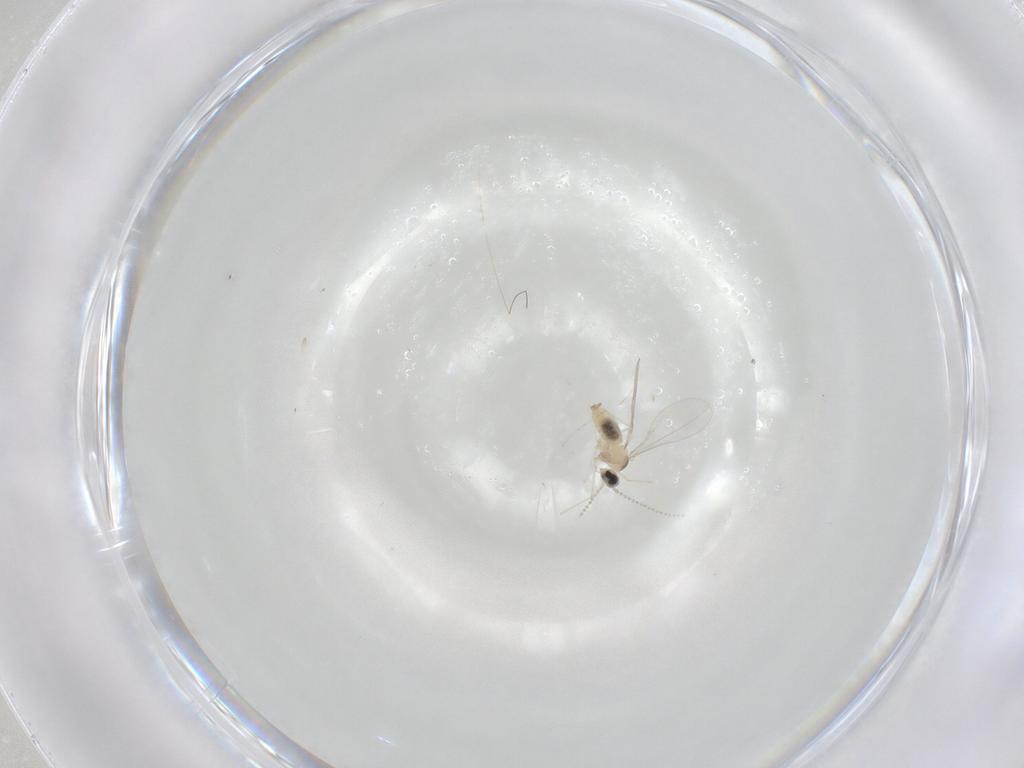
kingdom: Animalia
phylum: Arthropoda
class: Insecta
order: Diptera
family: Cecidomyiidae
